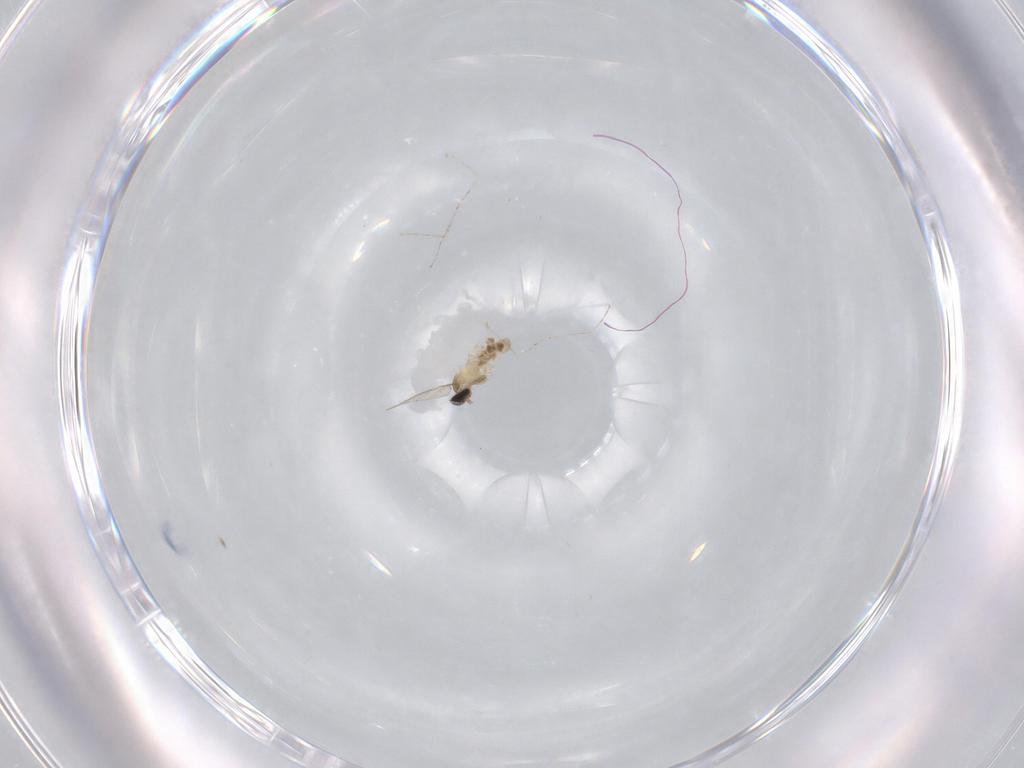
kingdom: Animalia
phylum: Arthropoda
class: Insecta
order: Diptera
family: Cecidomyiidae
